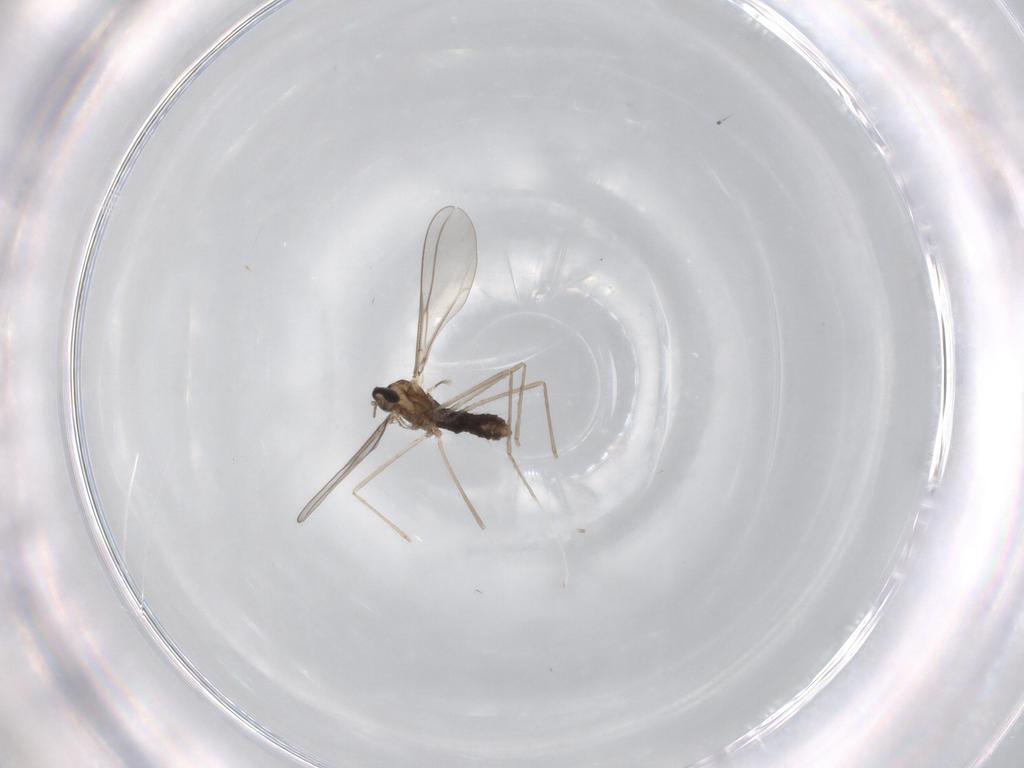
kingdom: Animalia
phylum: Arthropoda
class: Insecta
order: Diptera
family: Cecidomyiidae
